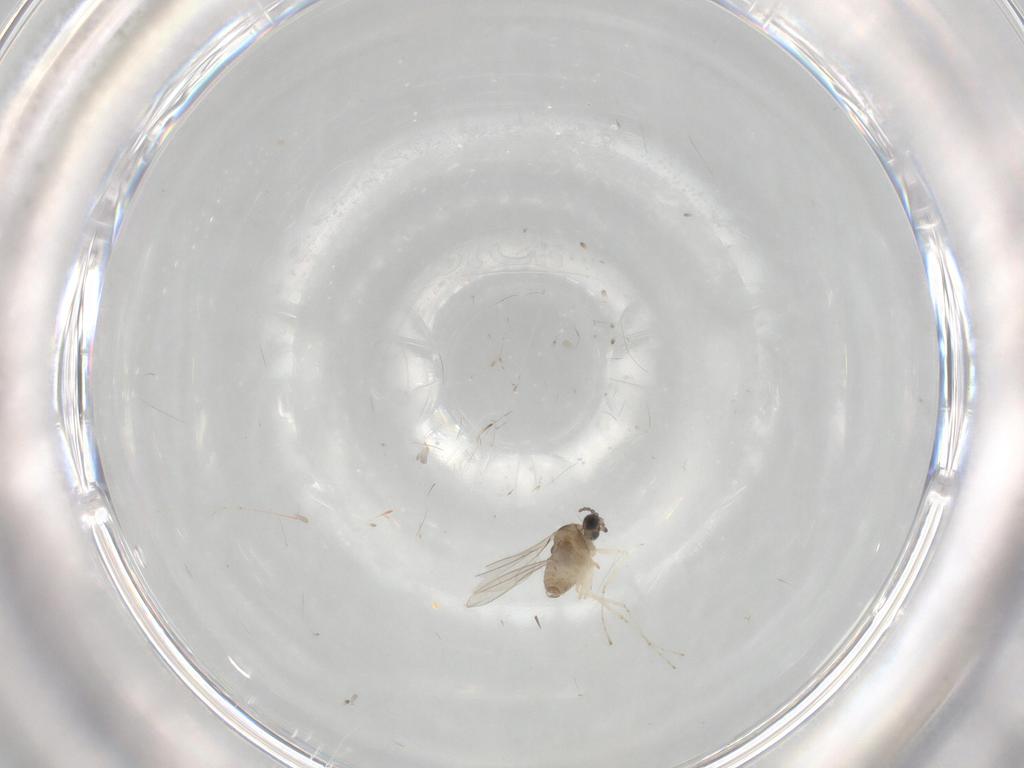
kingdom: Animalia
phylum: Arthropoda
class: Insecta
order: Diptera
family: Cecidomyiidae
